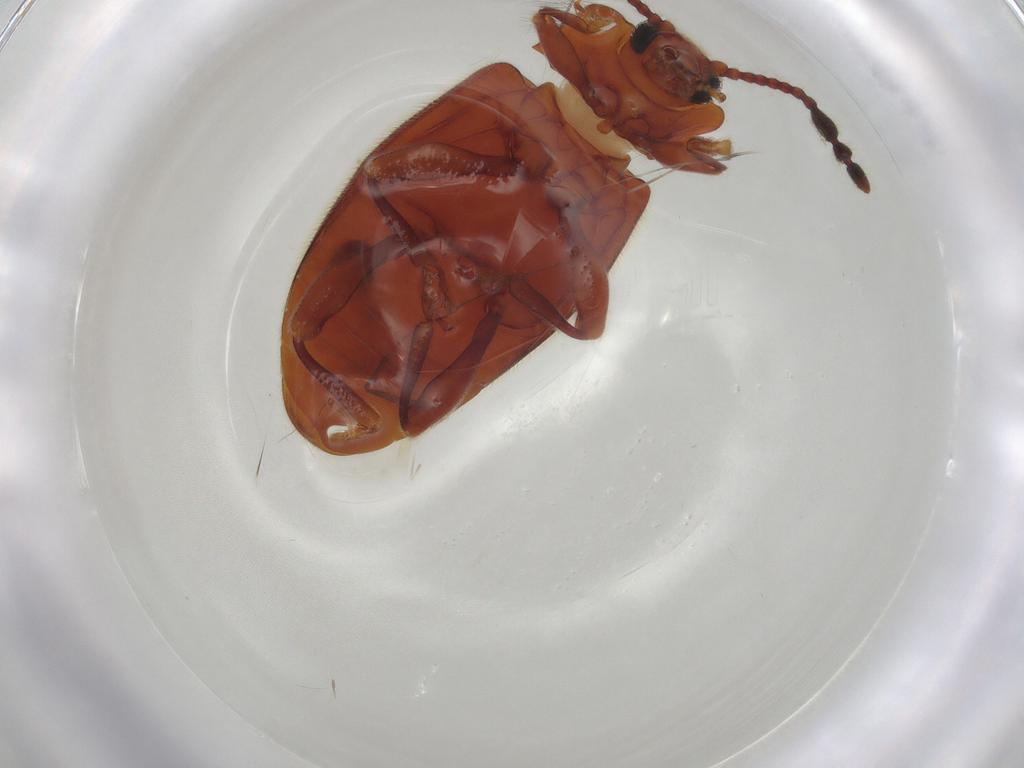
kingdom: Animalia
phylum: Arthropoda
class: Insecta
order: Coleoptera
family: Endomychidae
